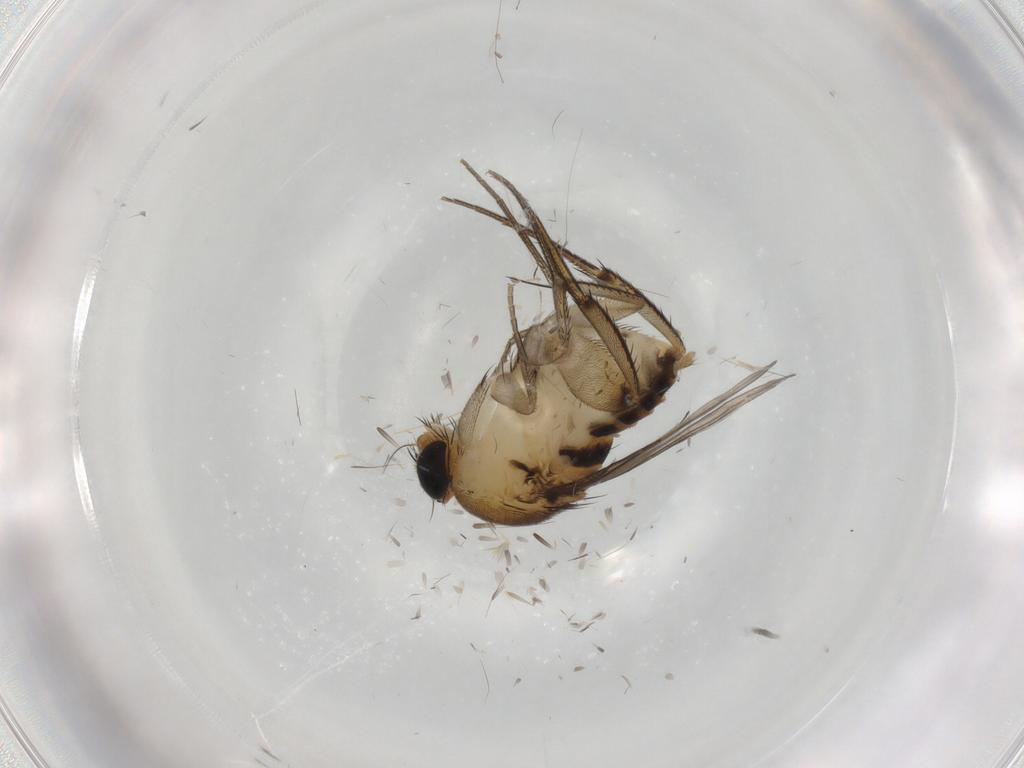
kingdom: Animalia
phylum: Arthropoda
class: Insecta
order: Diptera
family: Phoridae
